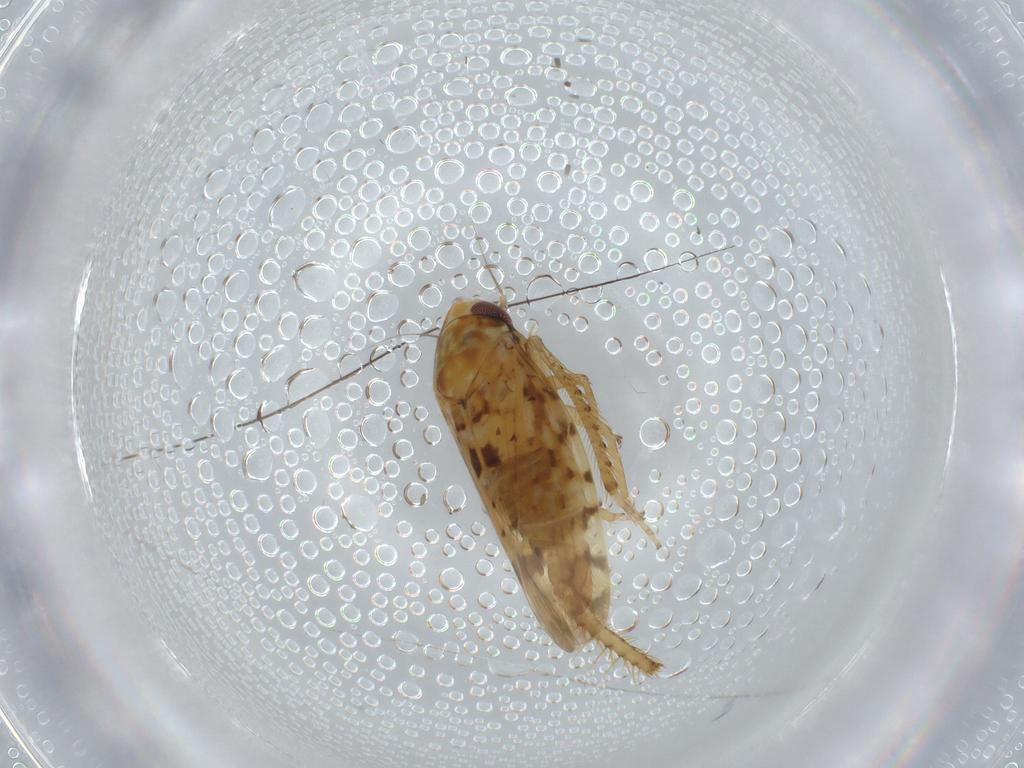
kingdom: Animalia
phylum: Arthropoda
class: Insecta
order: Hemiptera
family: Cicadellidae
